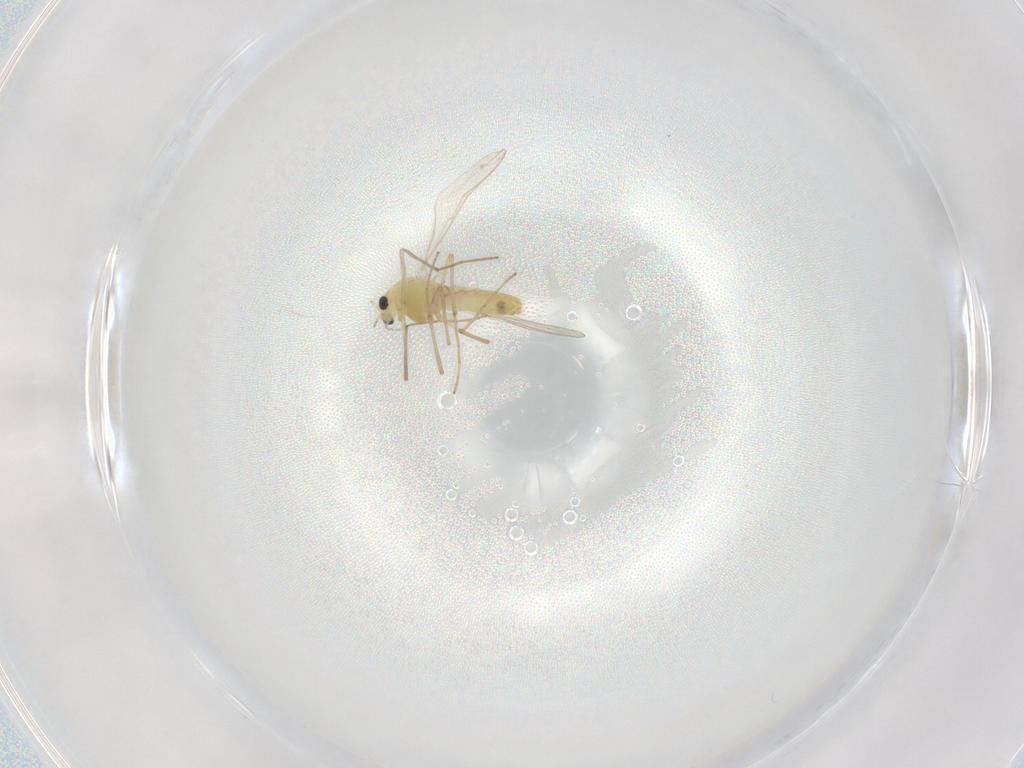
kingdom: Animalia
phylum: Arthropoda
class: Insecta
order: Diptera
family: Chironomidae
